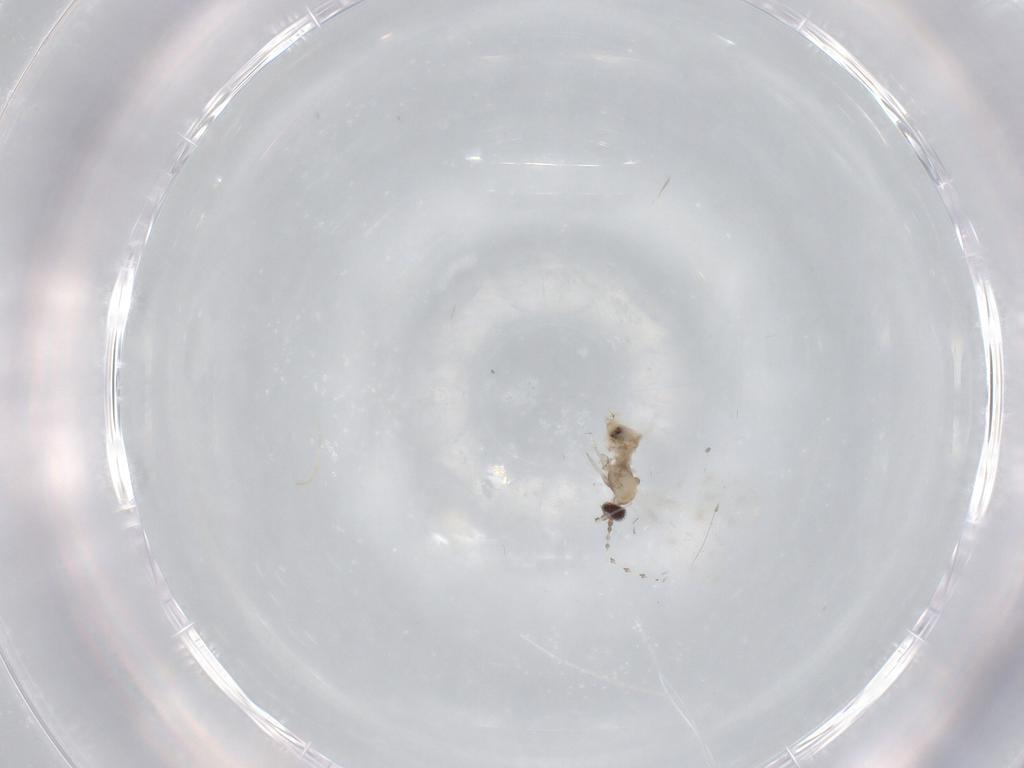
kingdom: Animalia
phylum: Arthropoda
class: Insecta
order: Diptera
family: Cecidomyiidae
